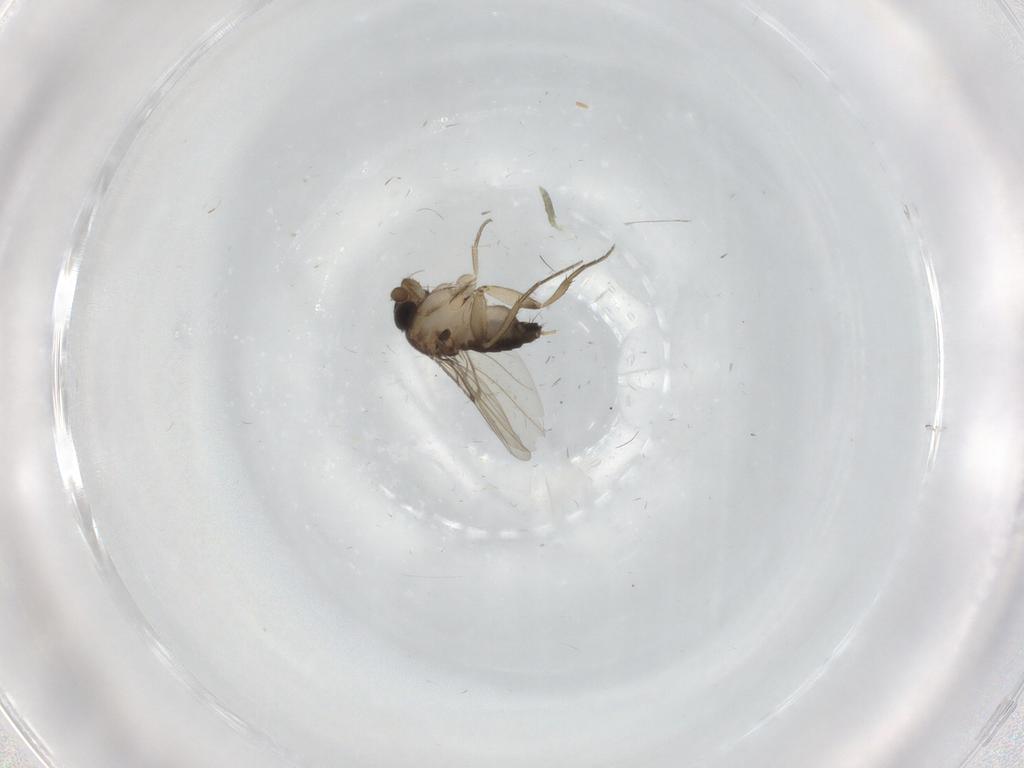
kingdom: Animalia
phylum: Arthropoda
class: Insecta
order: Diptera
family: Phoridae
